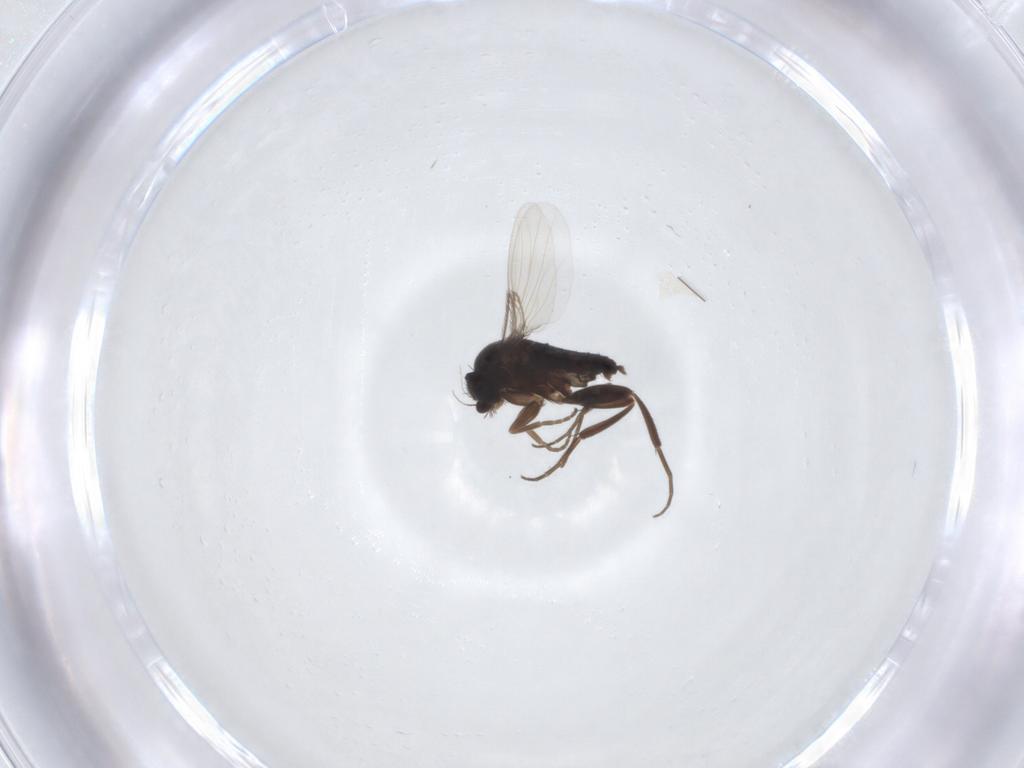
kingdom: Animalia
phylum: Arthropoda
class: Insecta
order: Diptera
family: Phoridae
